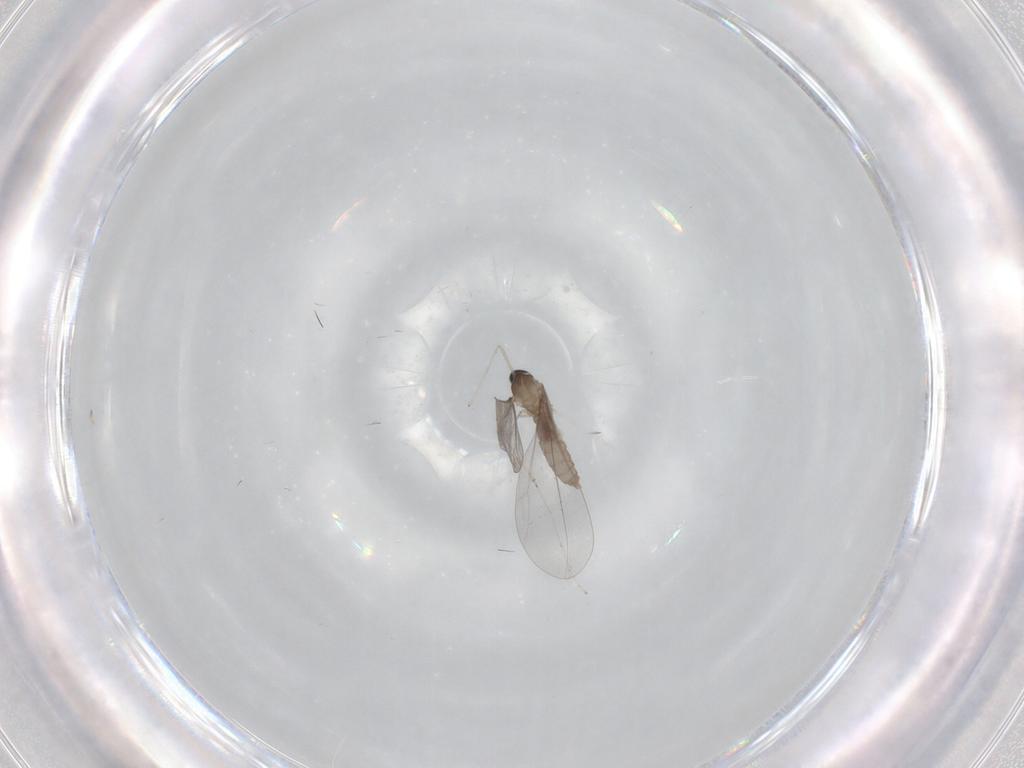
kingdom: Animalia
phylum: Arthropoda
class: Insecta
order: Diptera
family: Cecidomyiidae
